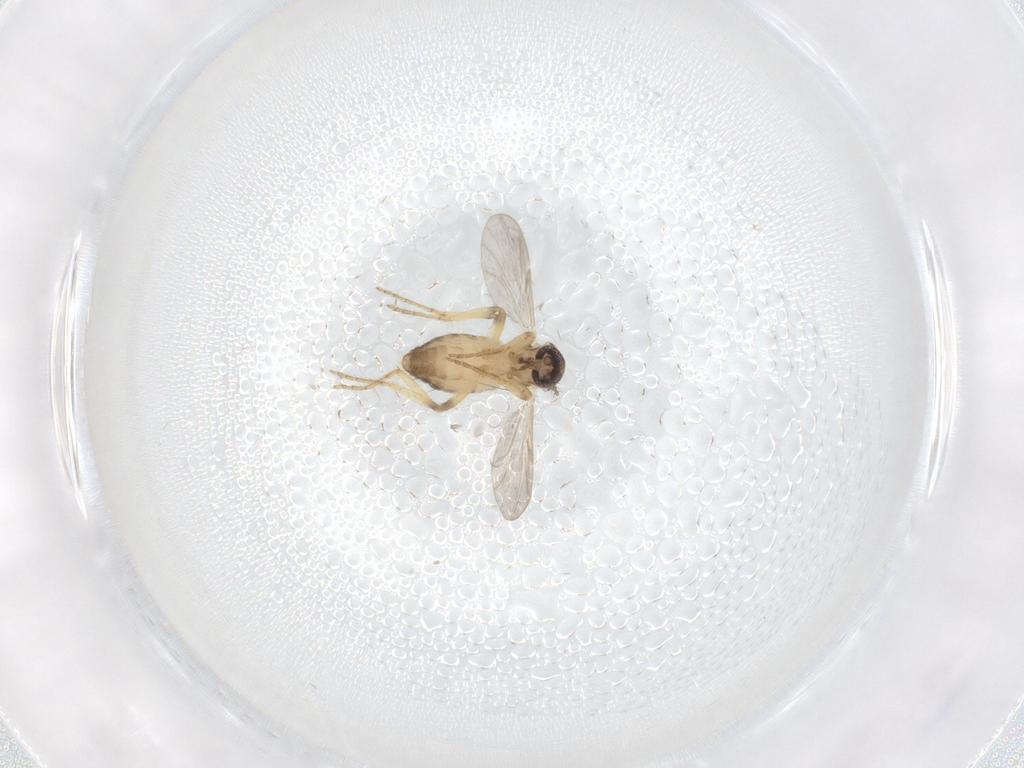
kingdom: Animalia
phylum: Arthropoda
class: Insecta
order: Diptera
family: Ceratopogonidae
